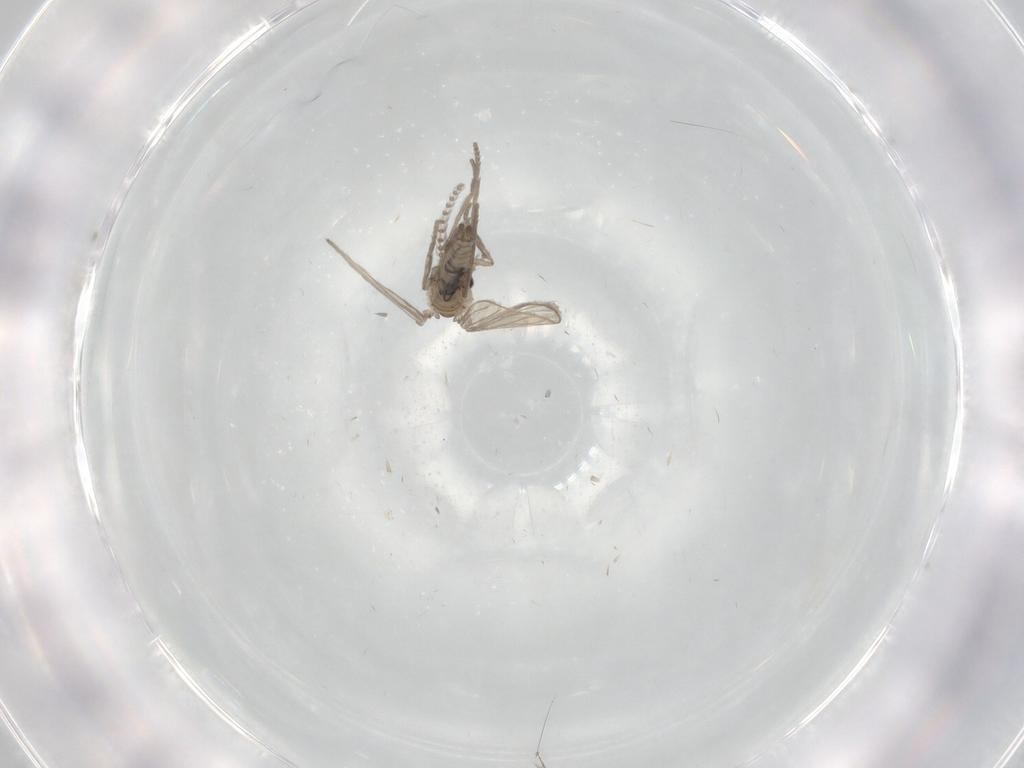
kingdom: Animalia
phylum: Arthropoda
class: Insecta
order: Diptera
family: Psychodidae
